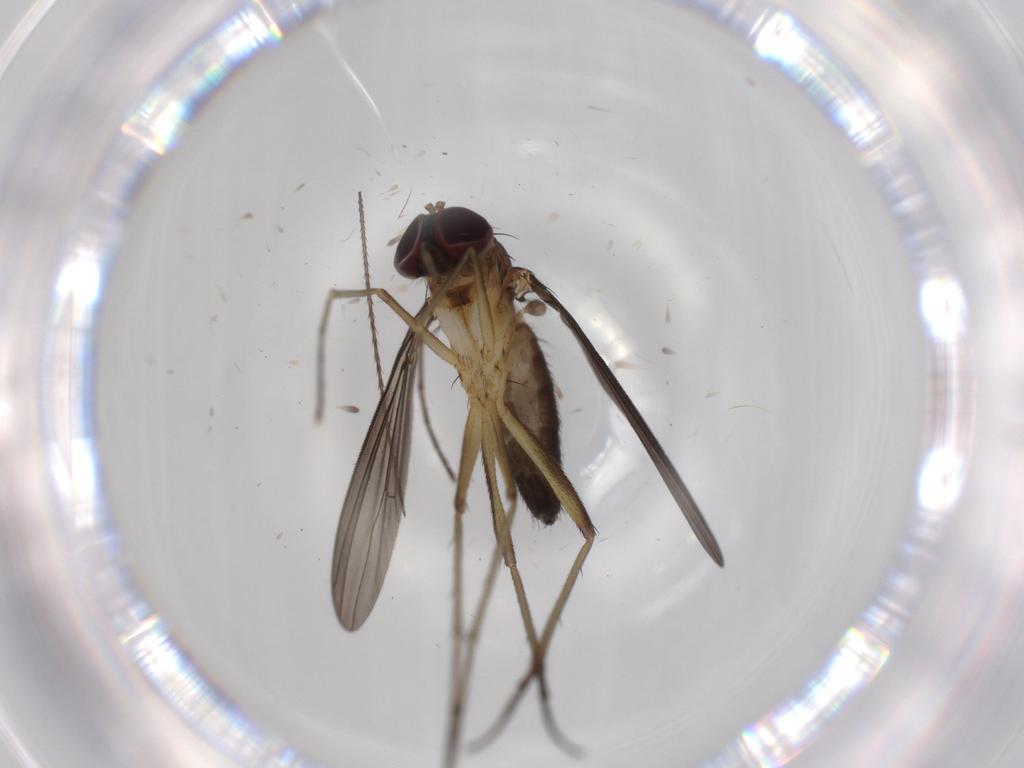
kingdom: Animalia
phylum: Arthropoda
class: Insecta
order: Diptera
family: Dolichopodidae
